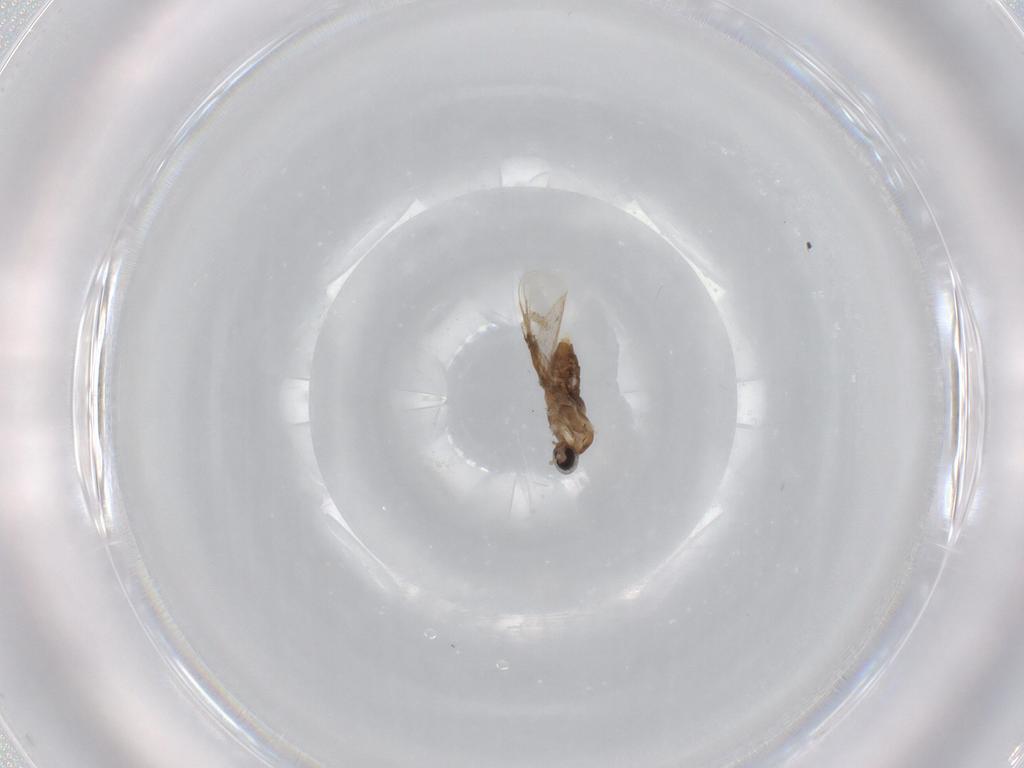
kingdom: Animalia
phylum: Arthropoda
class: Insecta
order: Diptera
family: Cecidomyiidae
